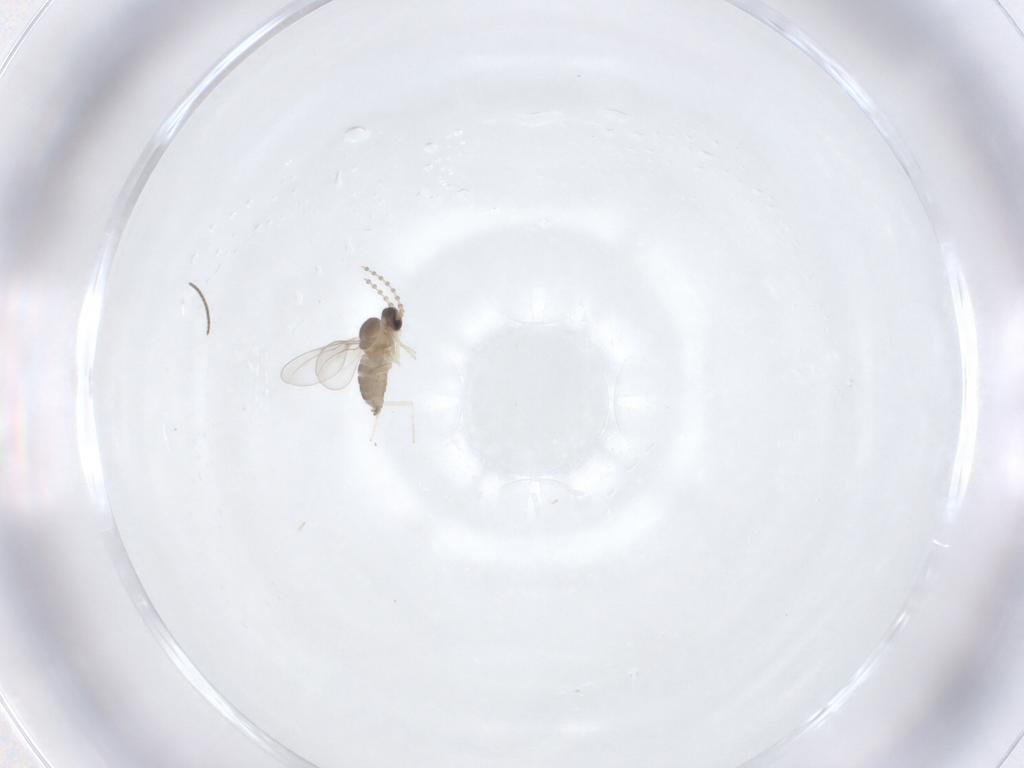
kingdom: Animalia
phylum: Arthropoda
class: Insecta
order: Diptera
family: Sciaridae
